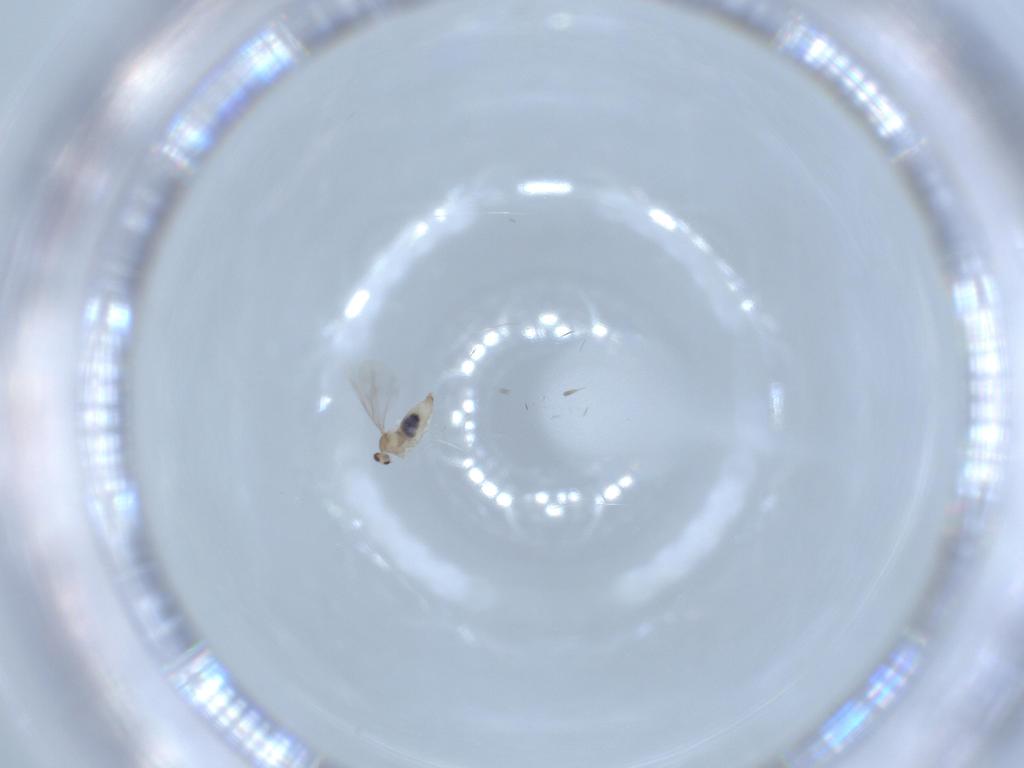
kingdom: Animalia
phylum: Arthropoda
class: Insecta
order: Diptera
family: Cecidomyiidae
